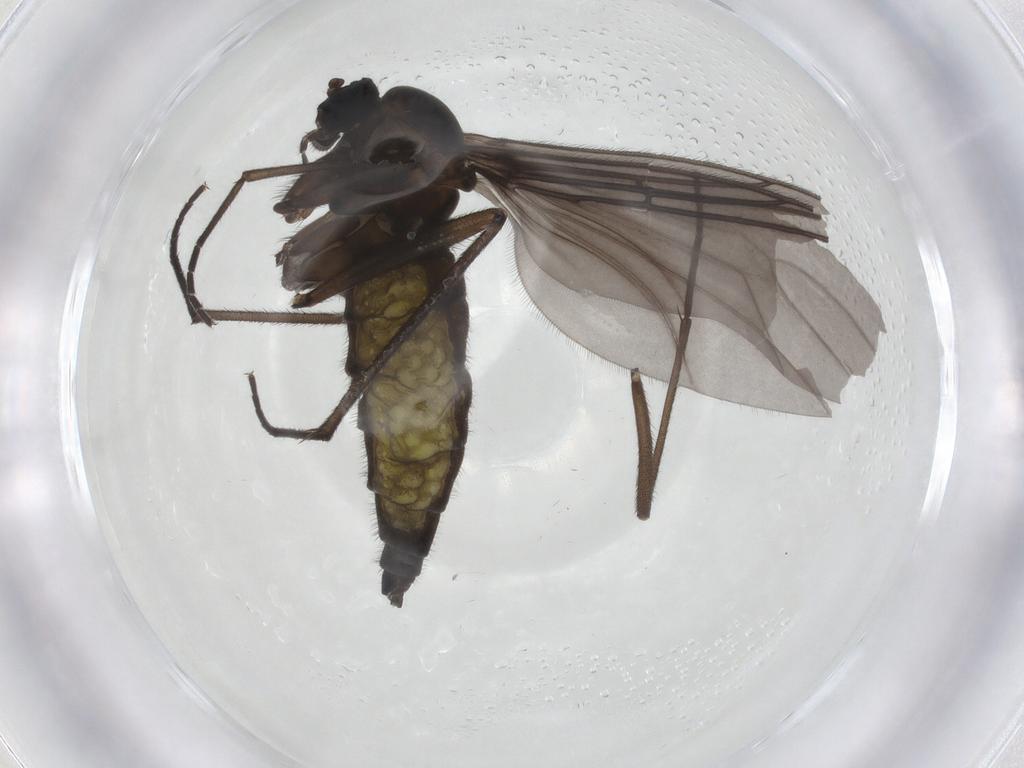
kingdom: Animalia
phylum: Arthropoda
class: Insecta
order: Diptera
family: Sciaridae
